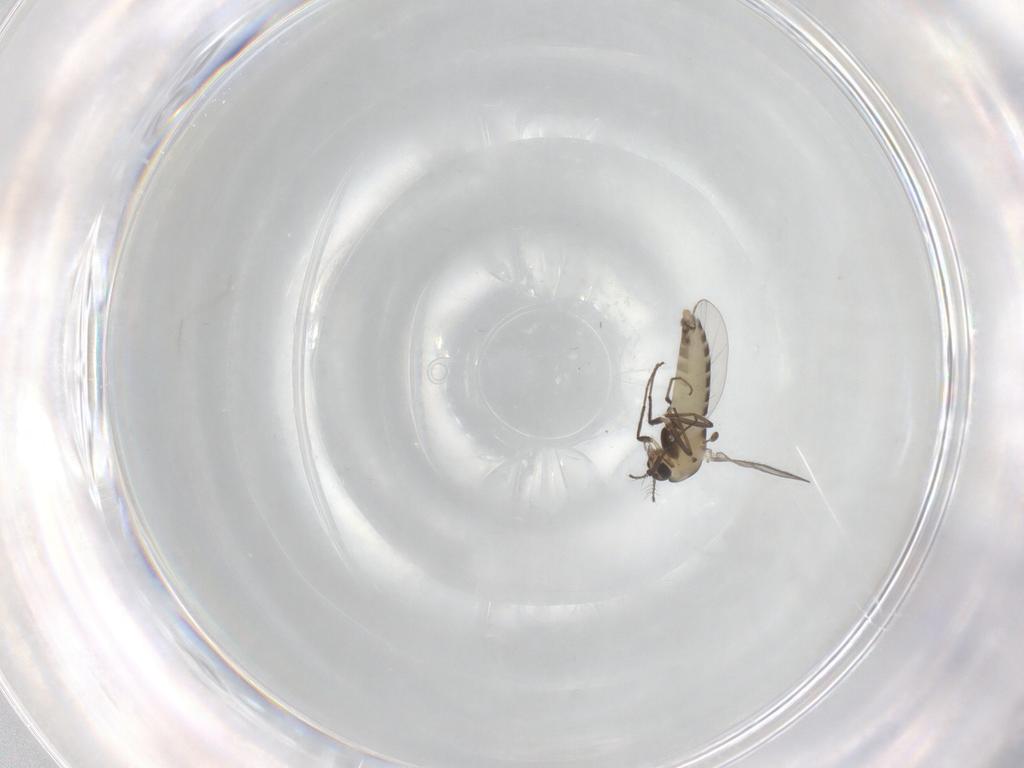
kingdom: Animalia
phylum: Arthropoda
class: Insecta
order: Diptera
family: Chironomidae
